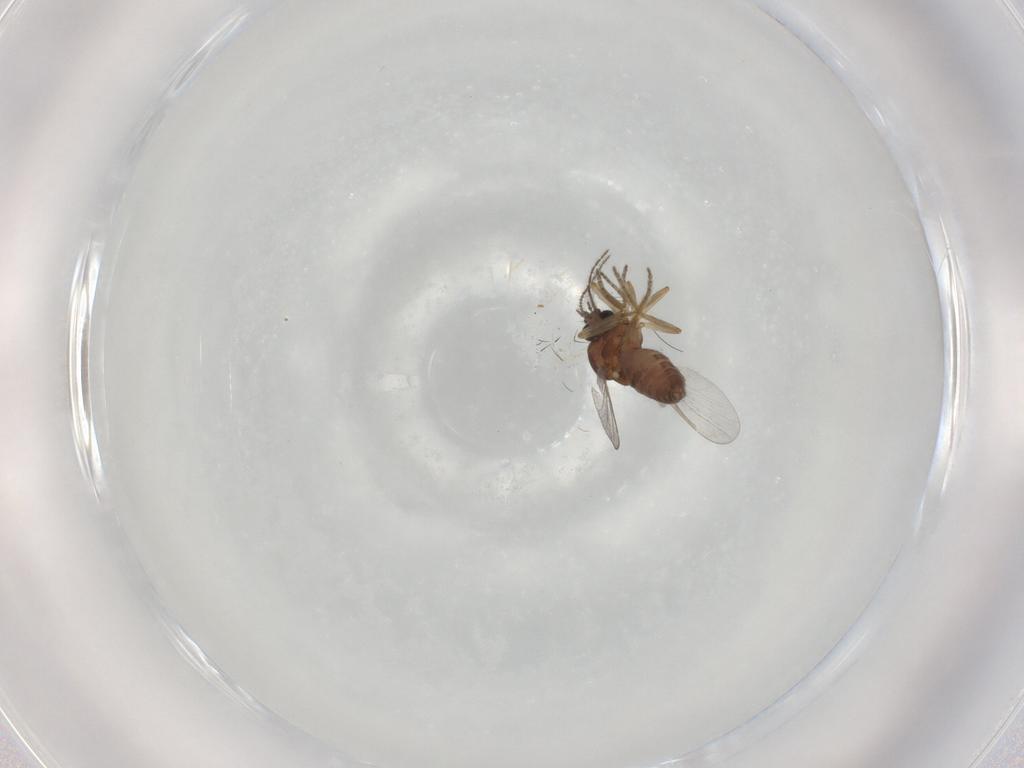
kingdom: Animalia
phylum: Arthropoda
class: Insecta
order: Diptera
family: Ceratopogonidae
